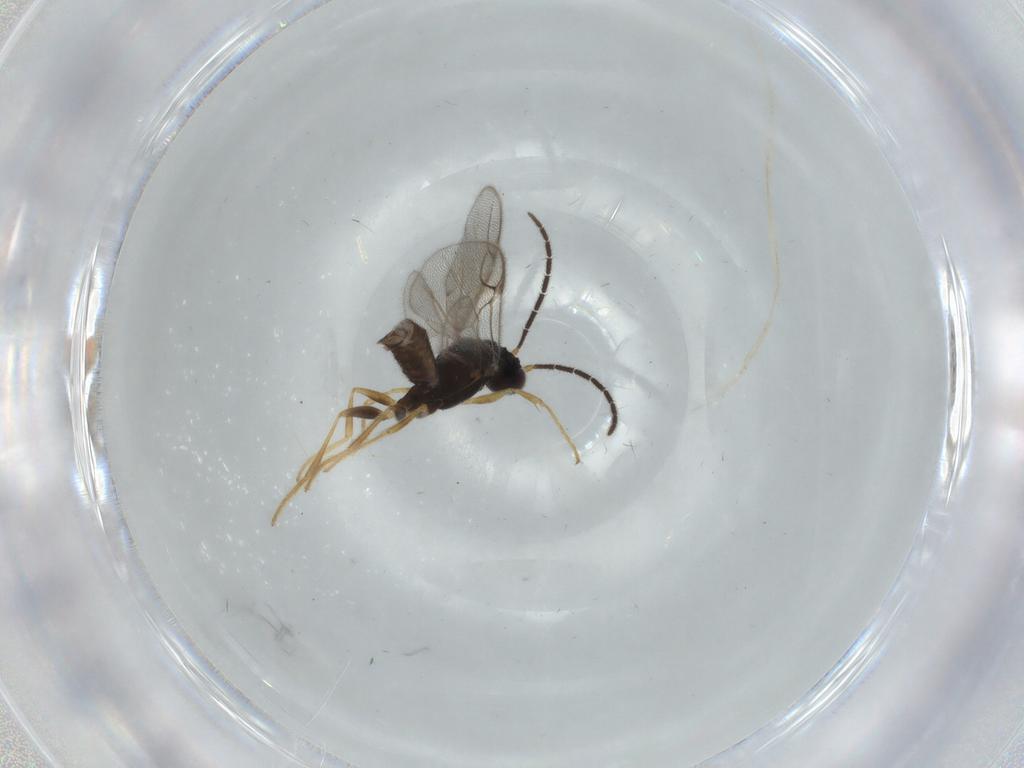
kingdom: Animalia
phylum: Arthropoda
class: Insecta
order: Hymenoptera
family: Dryinidae
